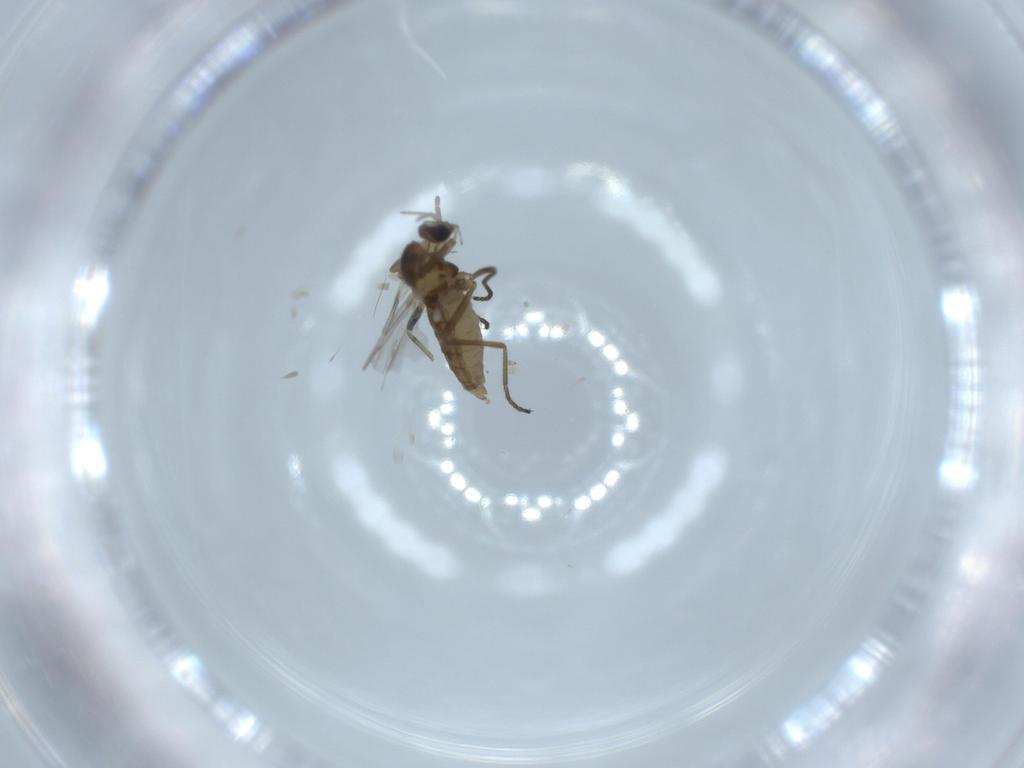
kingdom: Animalia
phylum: Arthropoda
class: Insecta
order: Diptera
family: Cecidomyiidae
